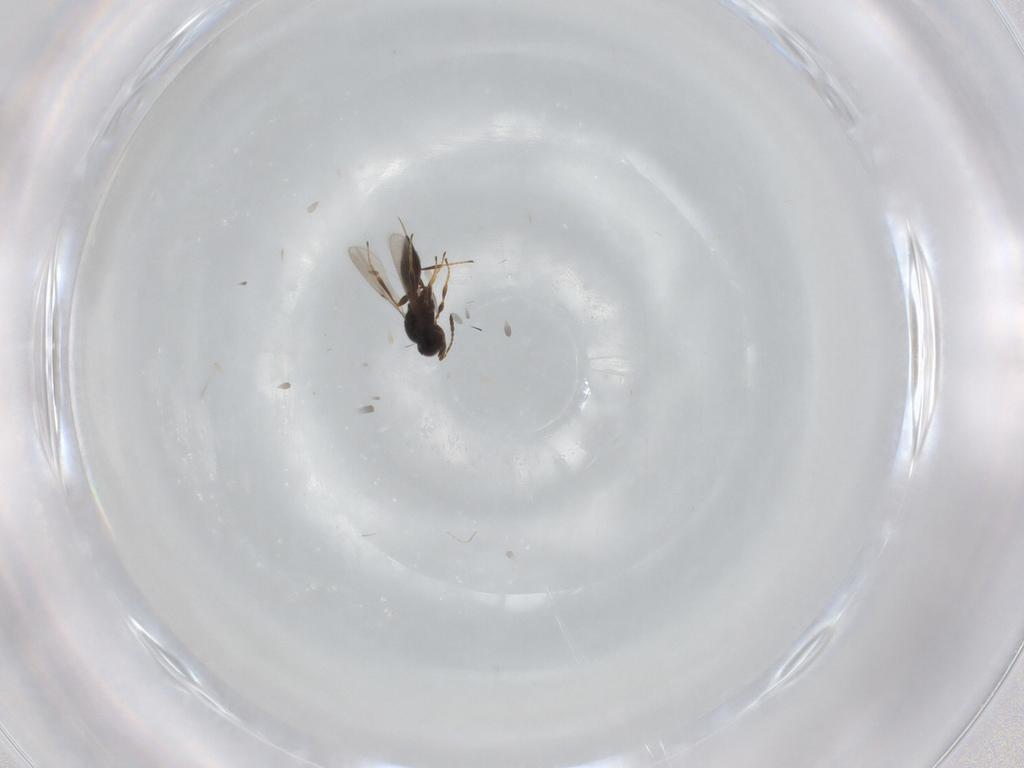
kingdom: Animalia
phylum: Arthropoda
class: Insecta
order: Hymenoptera
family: Platygastridae
